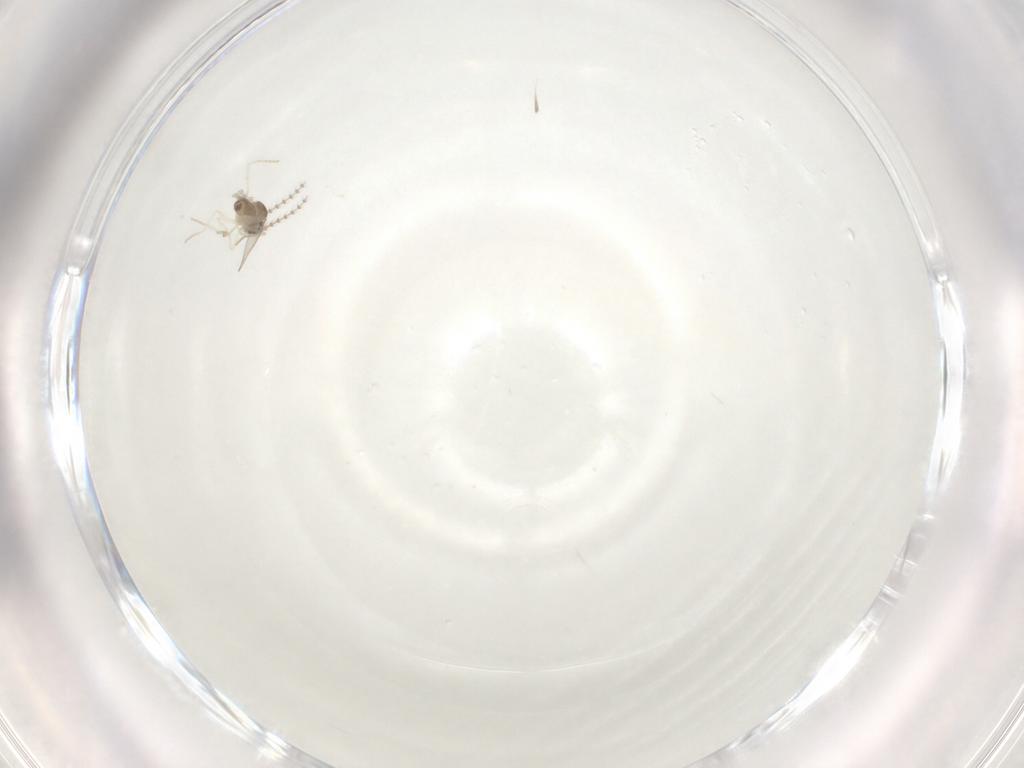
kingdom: Animalia
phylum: Arthropoda
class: Insecta
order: Diptera
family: Cecidomyiidae
